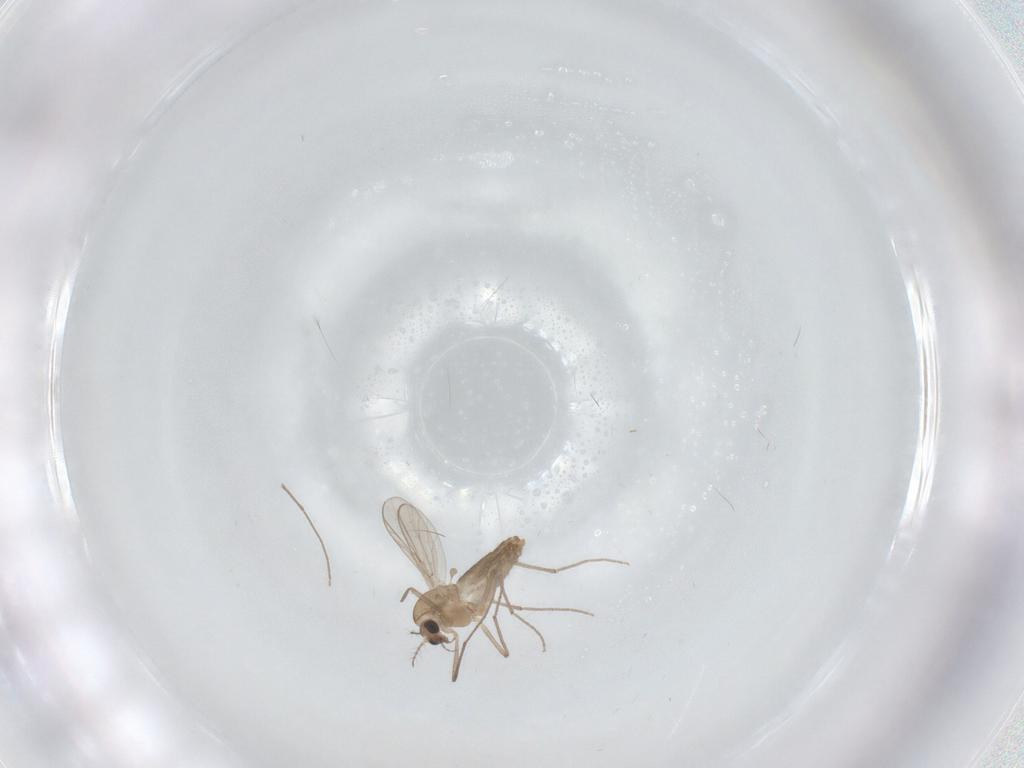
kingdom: Animalia
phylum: Arthropoda
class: Insecta
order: Diptera
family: Chironomidae
